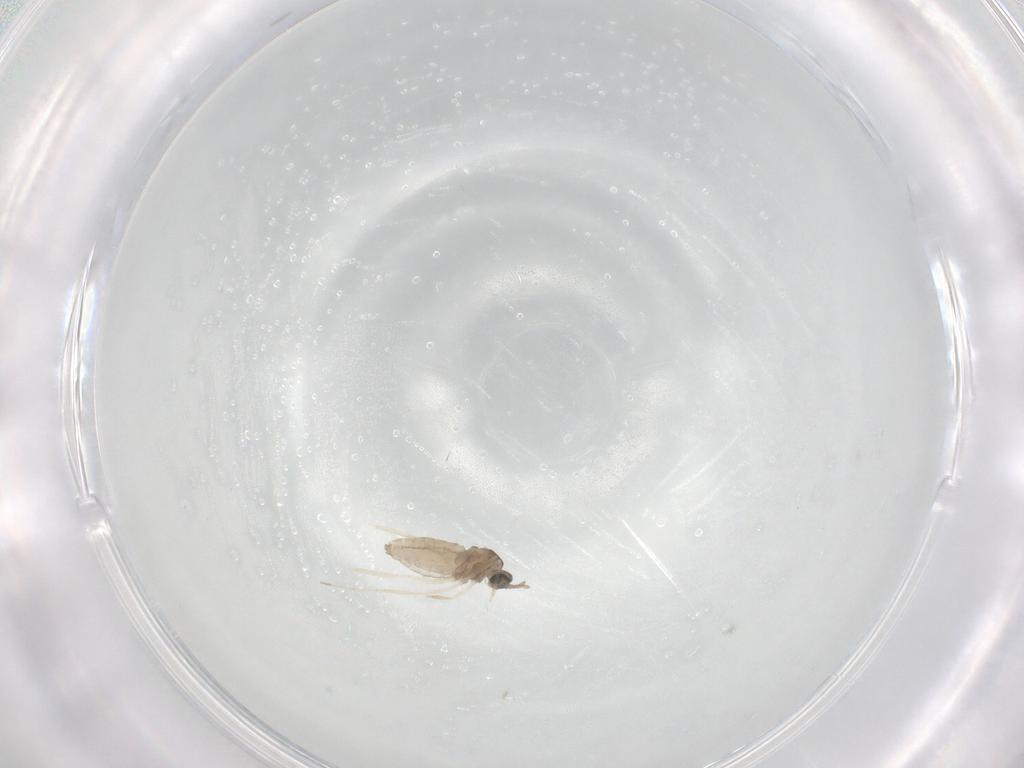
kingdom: Animalia
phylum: Arthropoda
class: Insecta
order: Diptera
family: Cecidomyiidae
